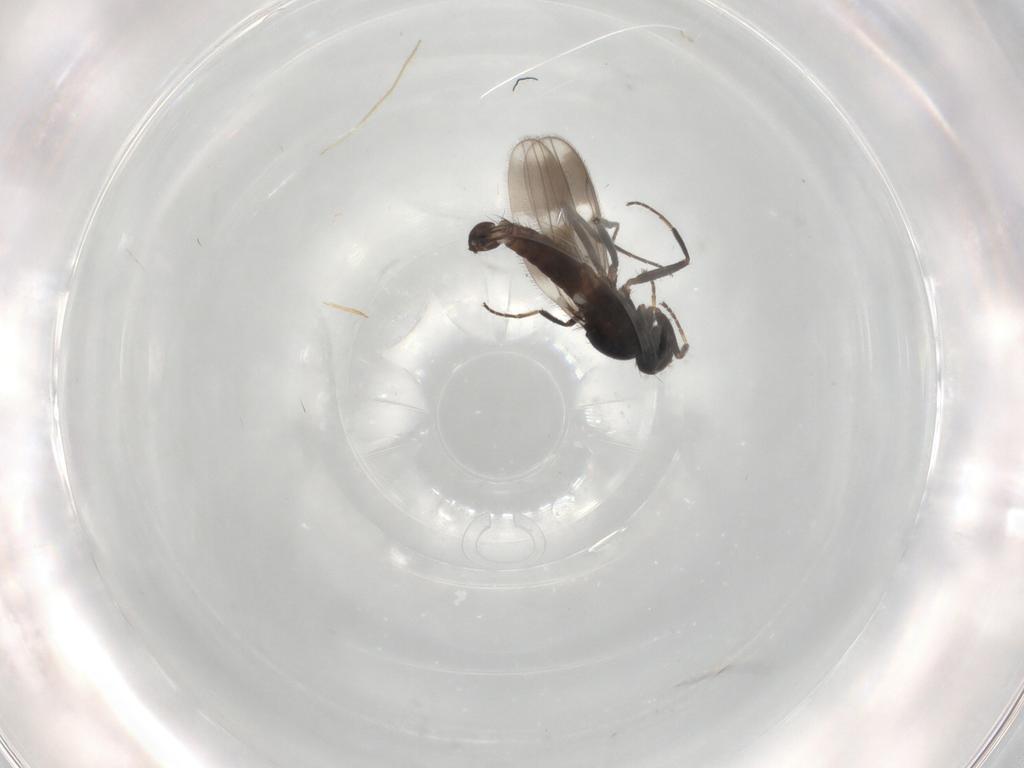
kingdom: Animalia
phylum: Arthropoda
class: Insecta
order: Diptera
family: Hybotidae
